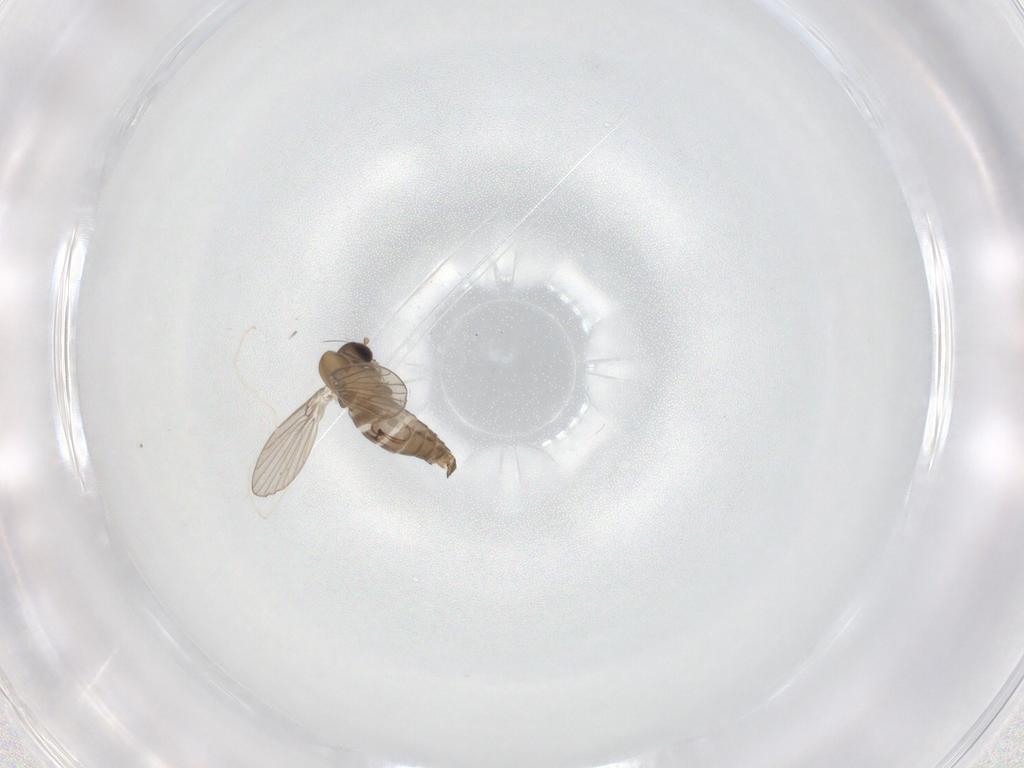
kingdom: Animalia
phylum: Arthropoda
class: Insecta
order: Diptera
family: Psychodidae
